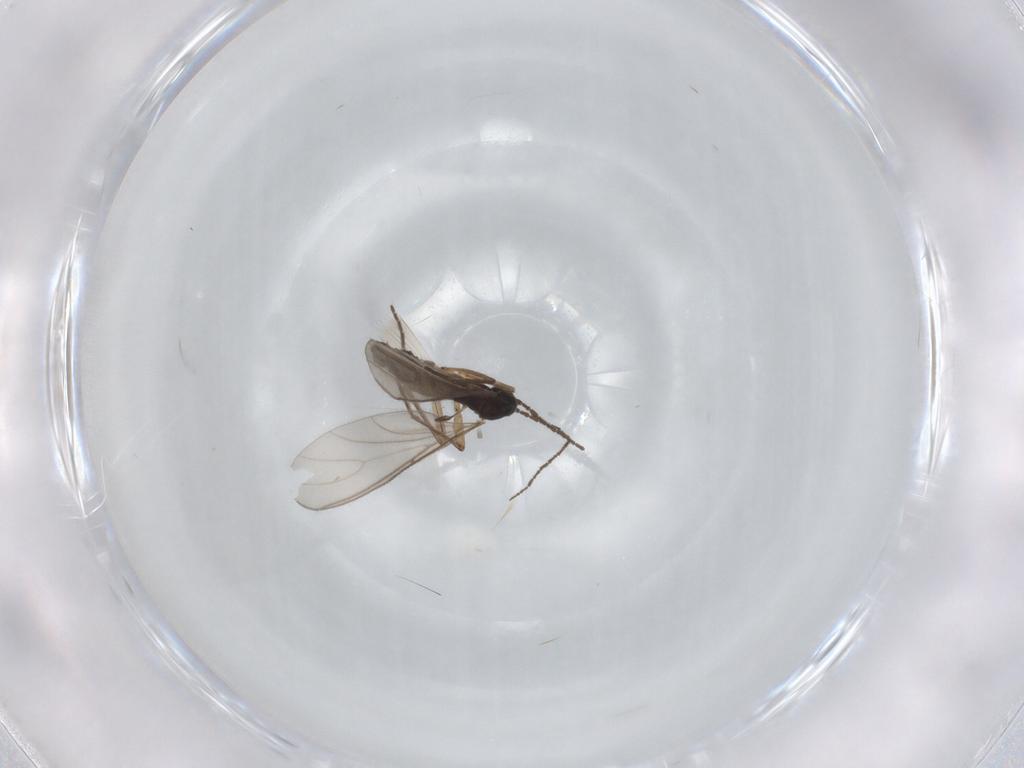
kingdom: Animalia
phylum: Arthropoda
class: Insecta
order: Diptera
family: Sciaridae
